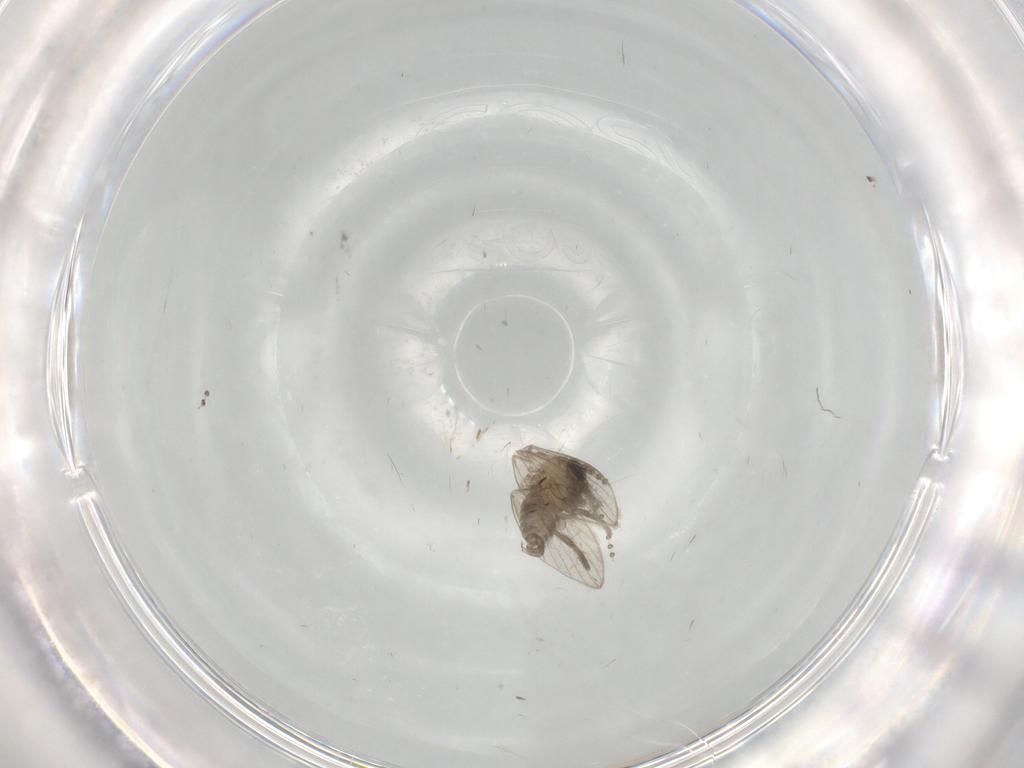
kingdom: Animalia
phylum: Arthropoda
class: Insecta
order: Diptera
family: Psychodidae
